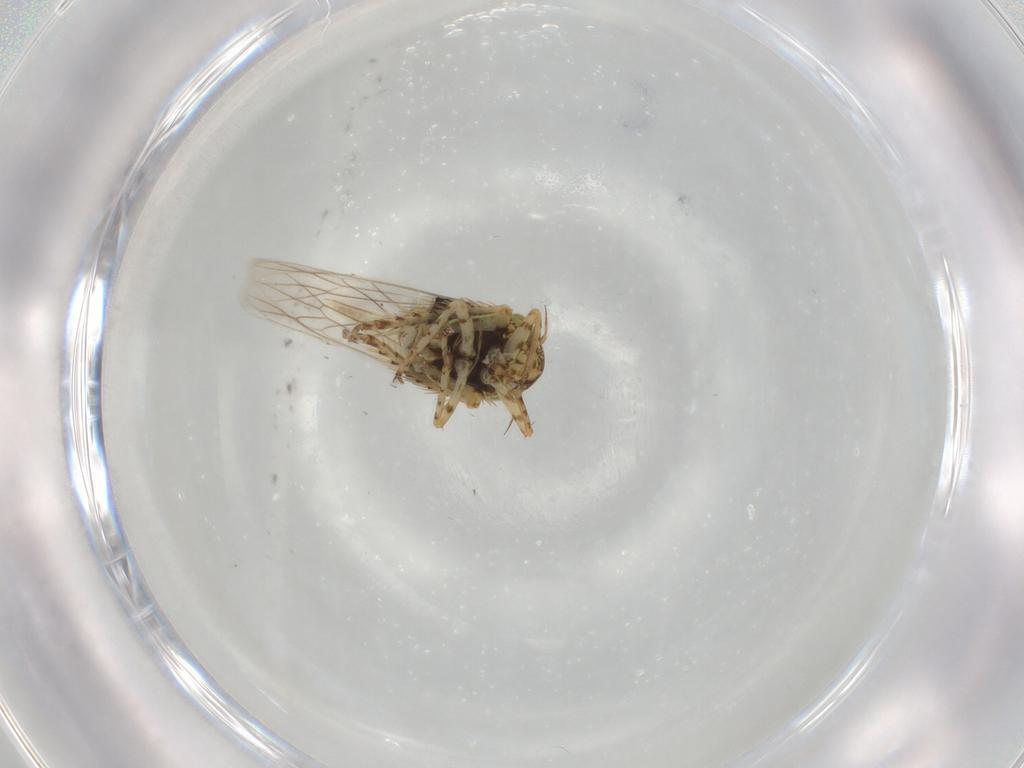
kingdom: Animalia
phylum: Arthropoda
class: Insecta
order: Hemiptera
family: Cicadellidae
